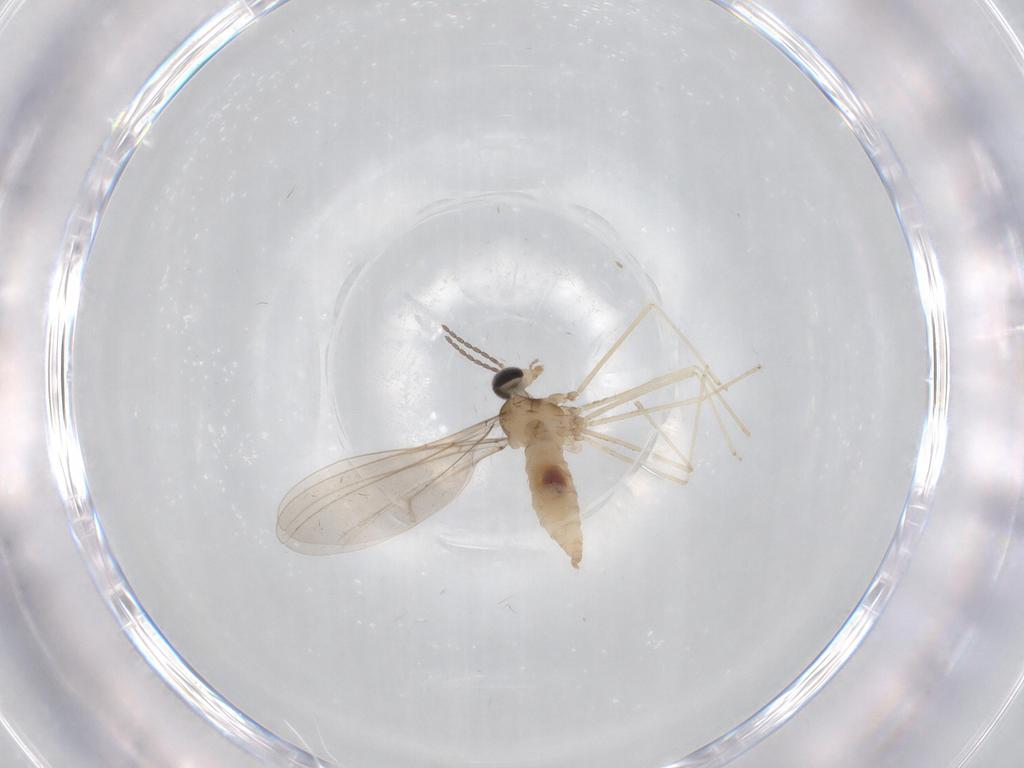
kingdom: Animalia
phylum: Arthropoda
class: Insecta
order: Diptera
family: Cecidomyiidae
